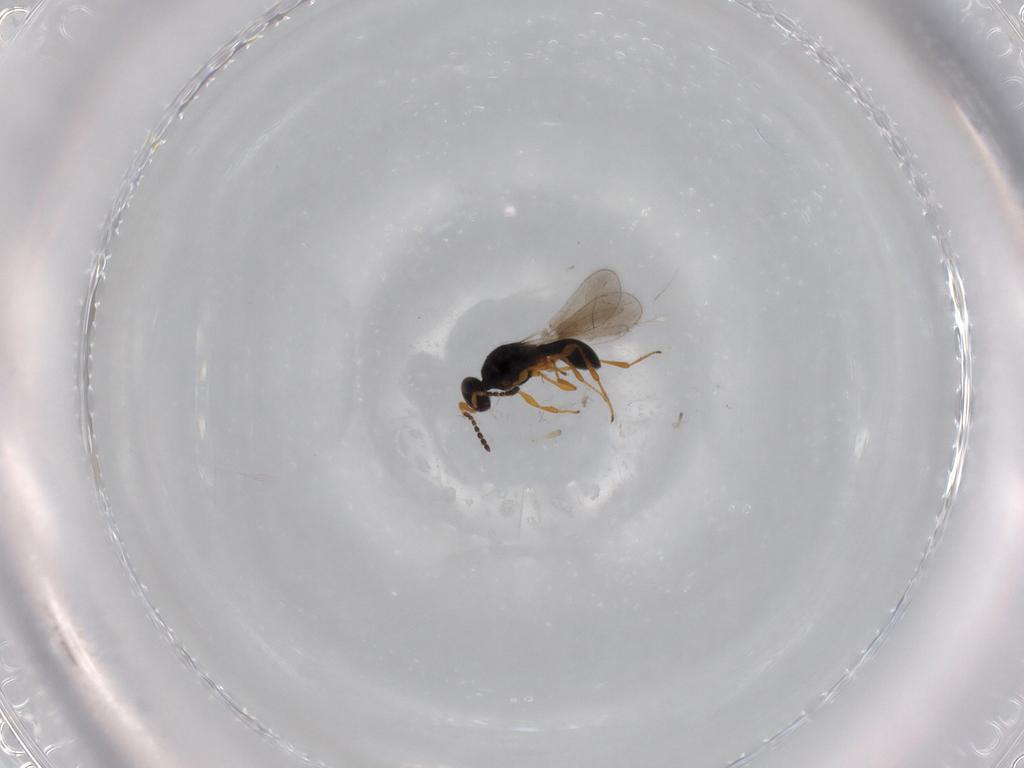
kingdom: Animalia
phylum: Arthropoda
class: Insecta
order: Hymenoptera
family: Platygastridae
